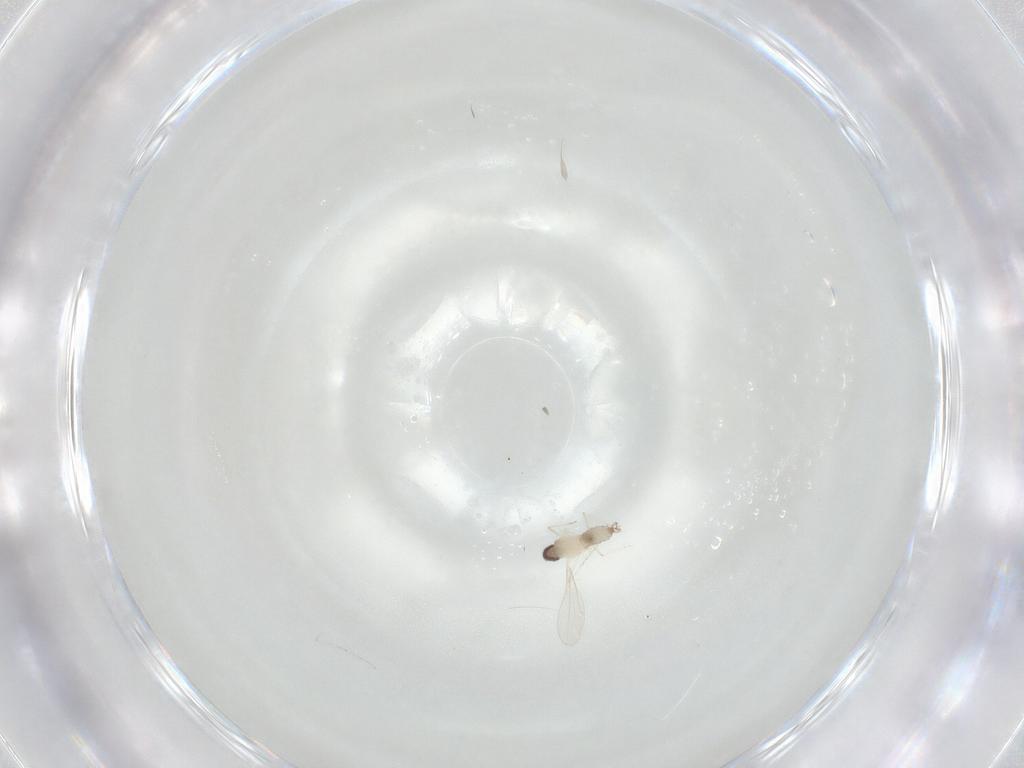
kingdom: Animalia
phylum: Arthropoda
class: Insecta
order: Diptera
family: Cecidomyiidae
